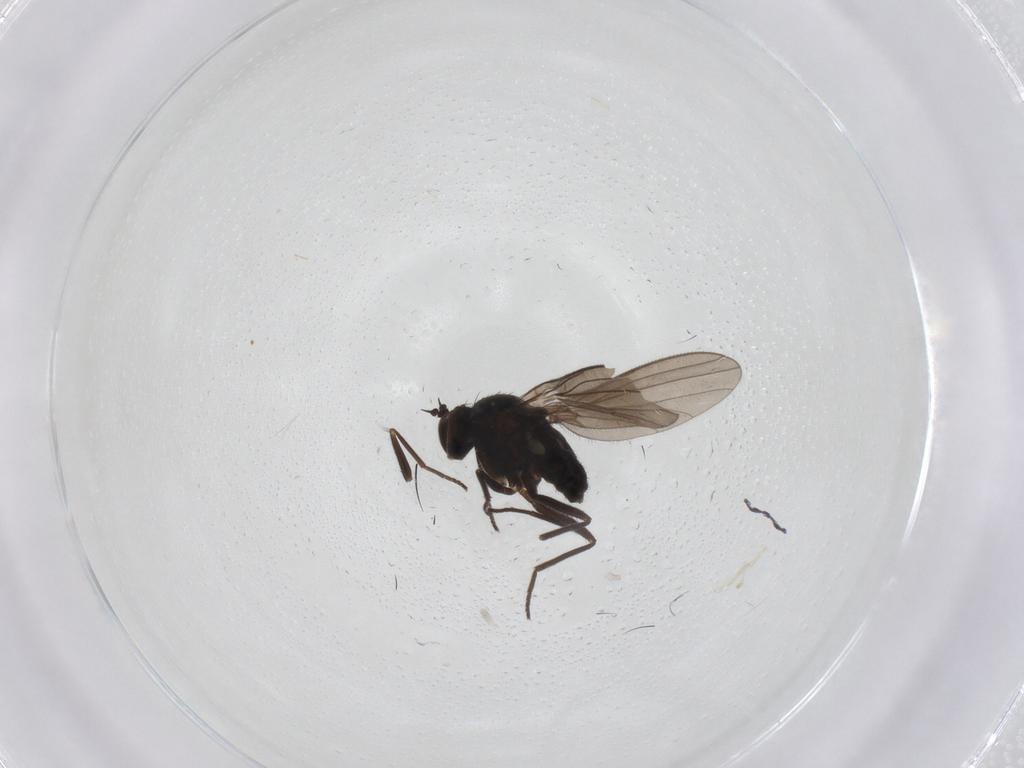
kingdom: Animalia
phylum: Arthropoda
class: Insecta
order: Diptera
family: Dolichopodidae
